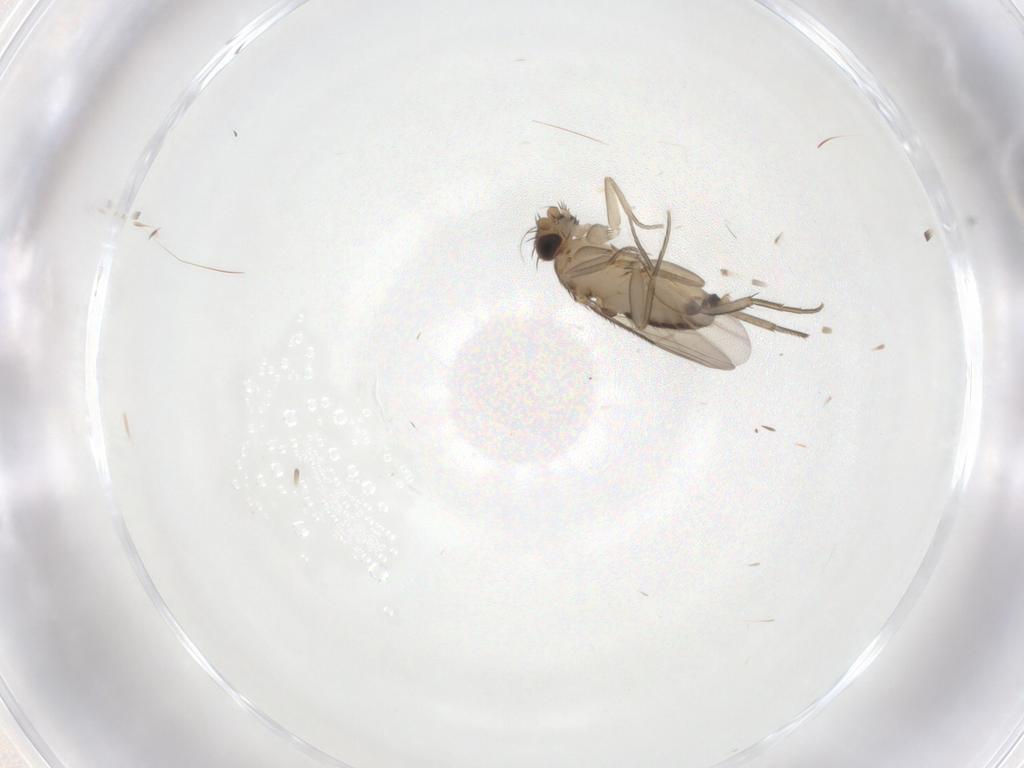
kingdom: Animalia
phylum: Arthropoda
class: Insecta
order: Diptera
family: Phoridae
